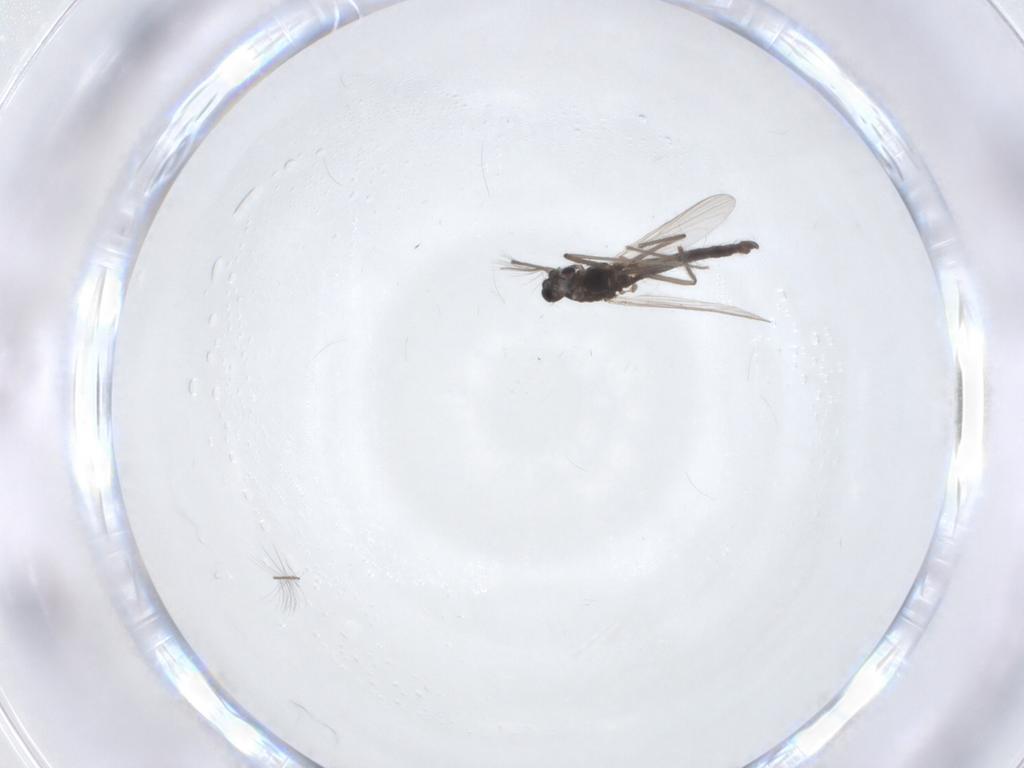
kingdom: Animalia
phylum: Arthropoda
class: Insecta
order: Diptera
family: Chironomidae
